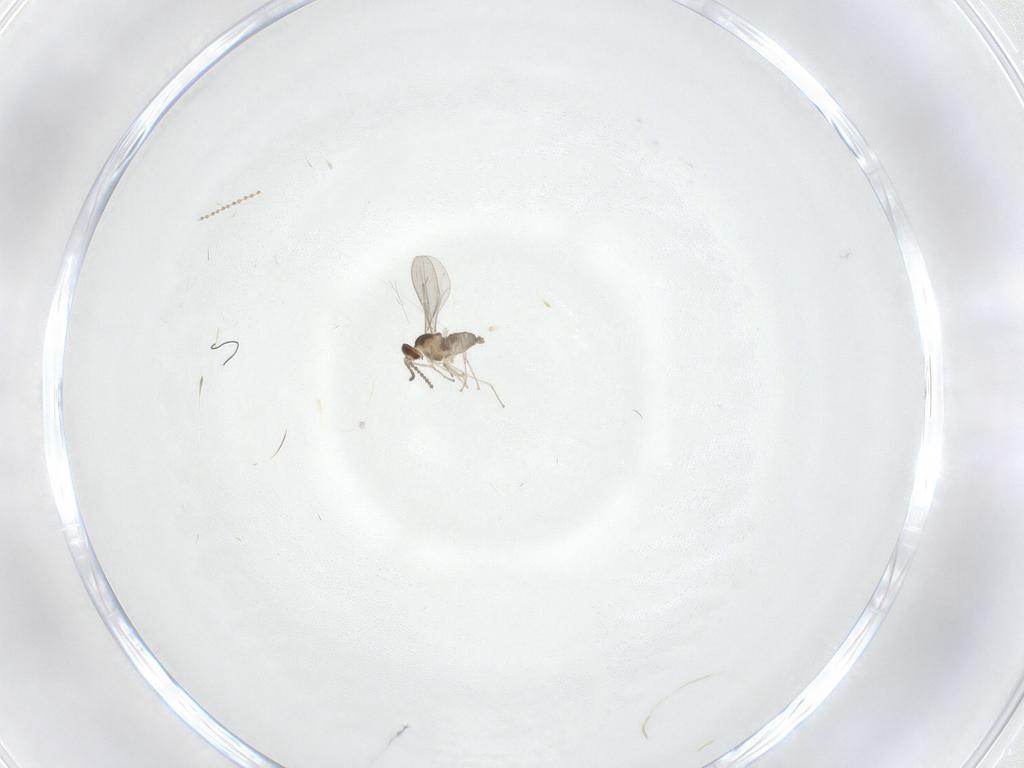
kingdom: Animalia
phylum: Arthropoda
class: Insecta
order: Diptera
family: Cecidomyiidae
